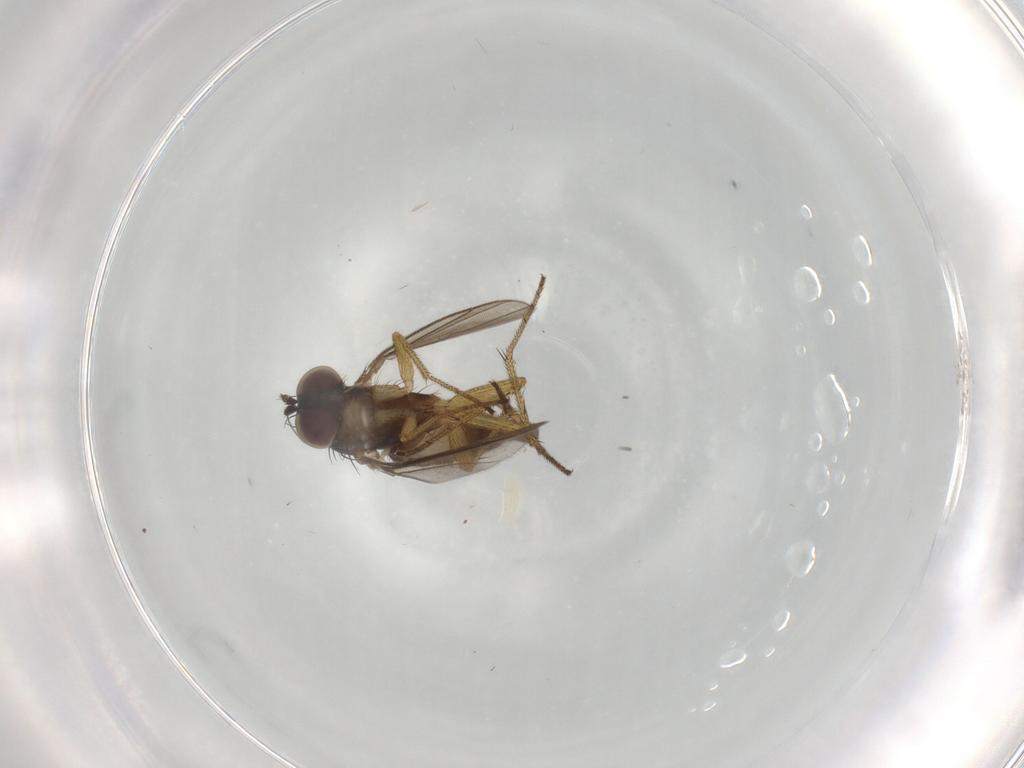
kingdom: Animalia
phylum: Arthropoda
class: Insecta
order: Diptera
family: Dolichopodidae
